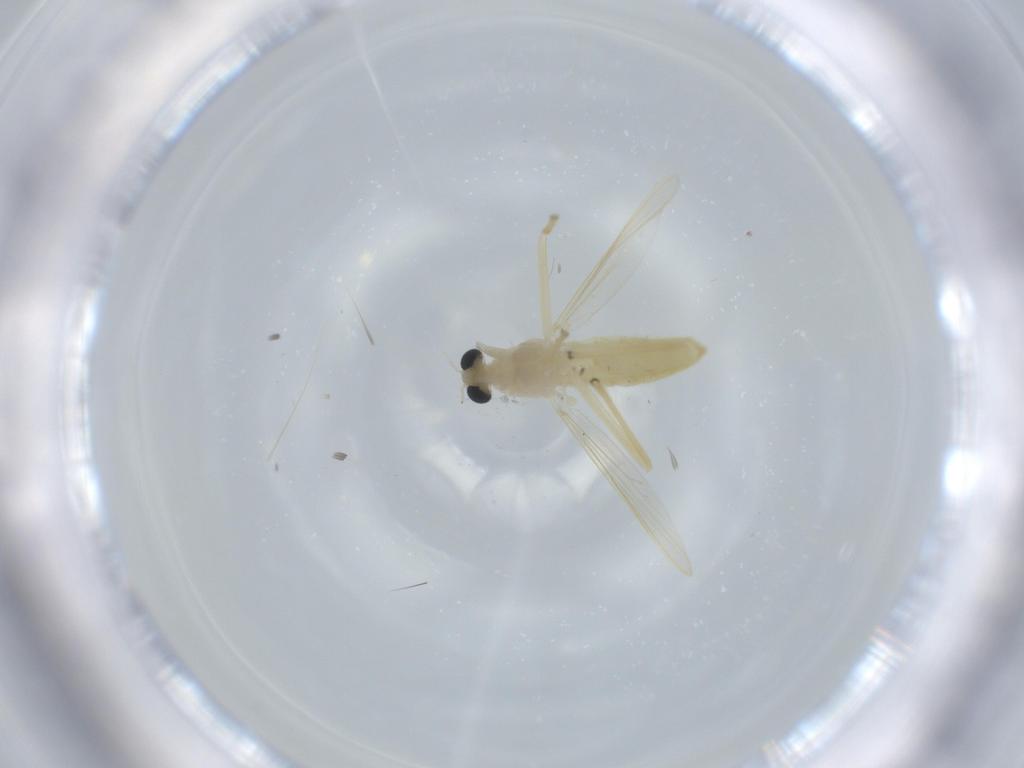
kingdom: Animalia
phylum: Arthropoda
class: Insecta
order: Diptera
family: Chironomidae
